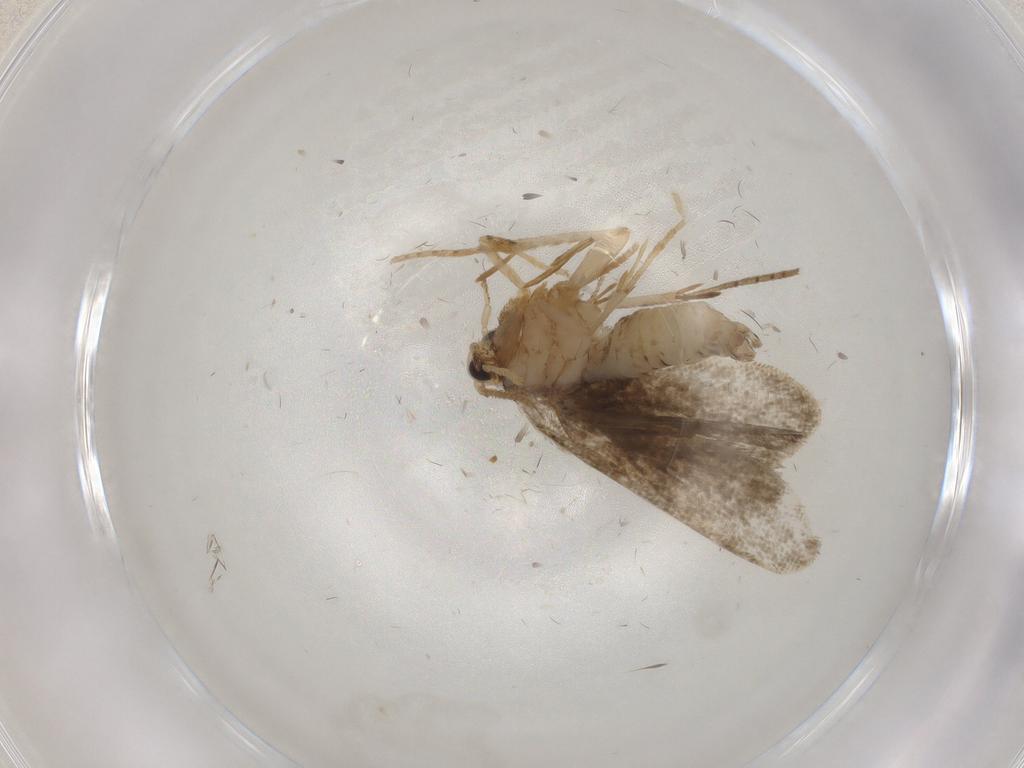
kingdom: Animalia
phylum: Arthropoda
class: Insecta
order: Lepidoptera
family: Psychidae
